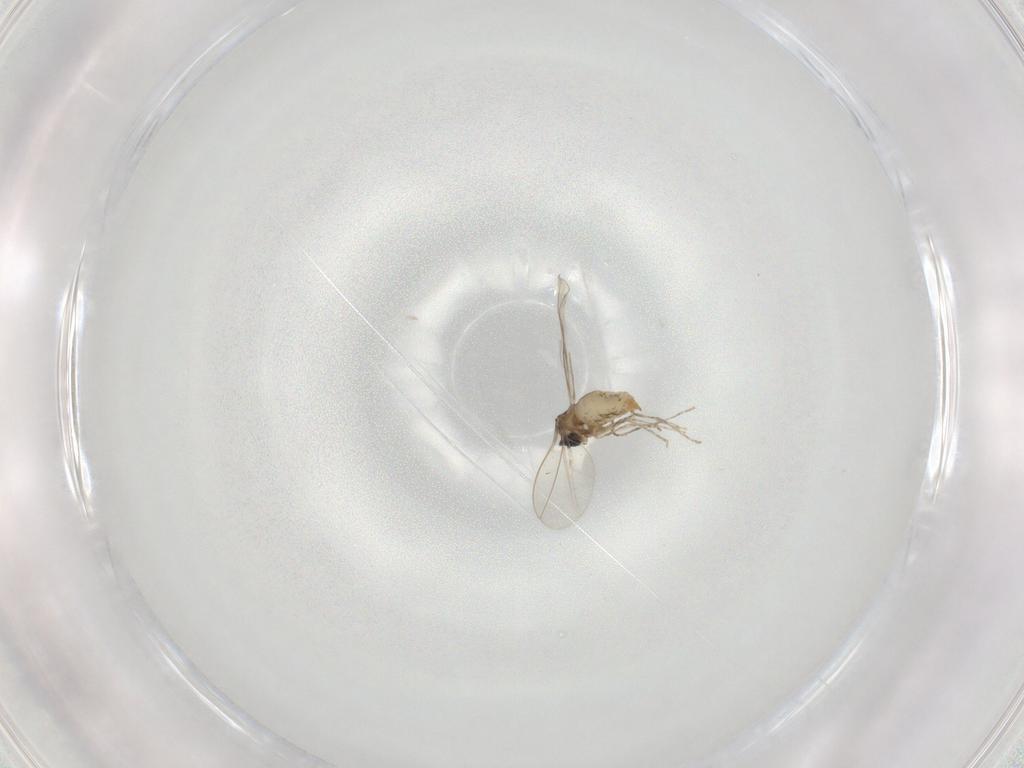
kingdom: Animalia
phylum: Arthropoda
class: Insecta
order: Diptera
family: Cecidomyiidae
